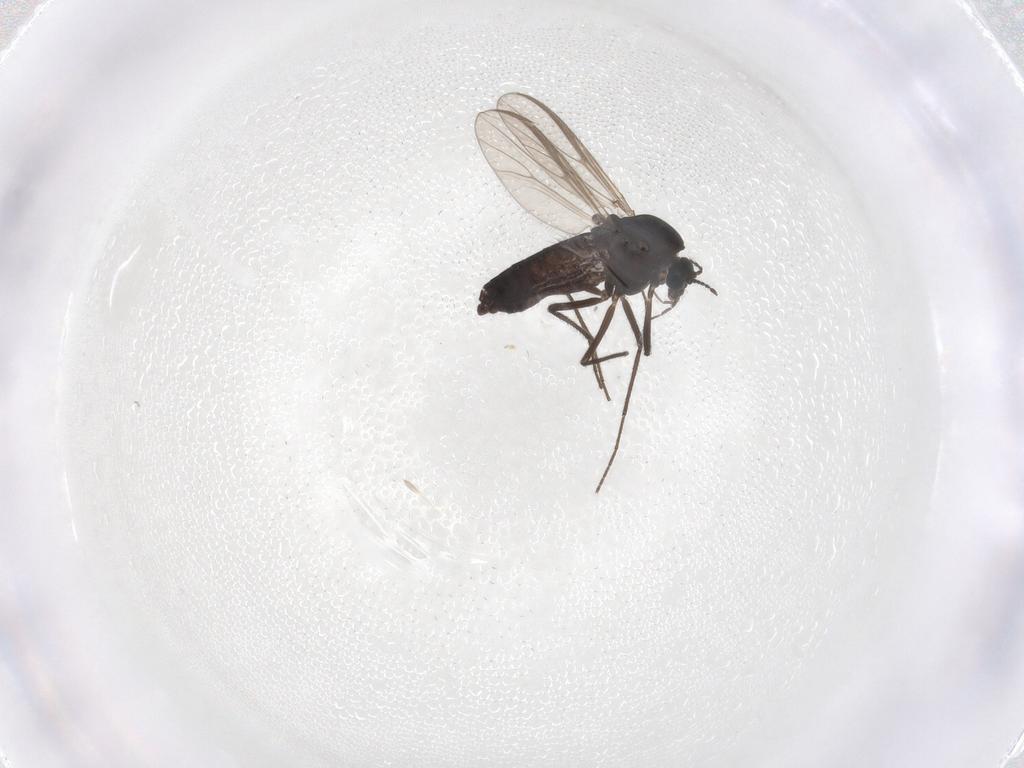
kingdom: Animalia
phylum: Arthropoda
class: Insecta
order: Diptera
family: Chironomidae
